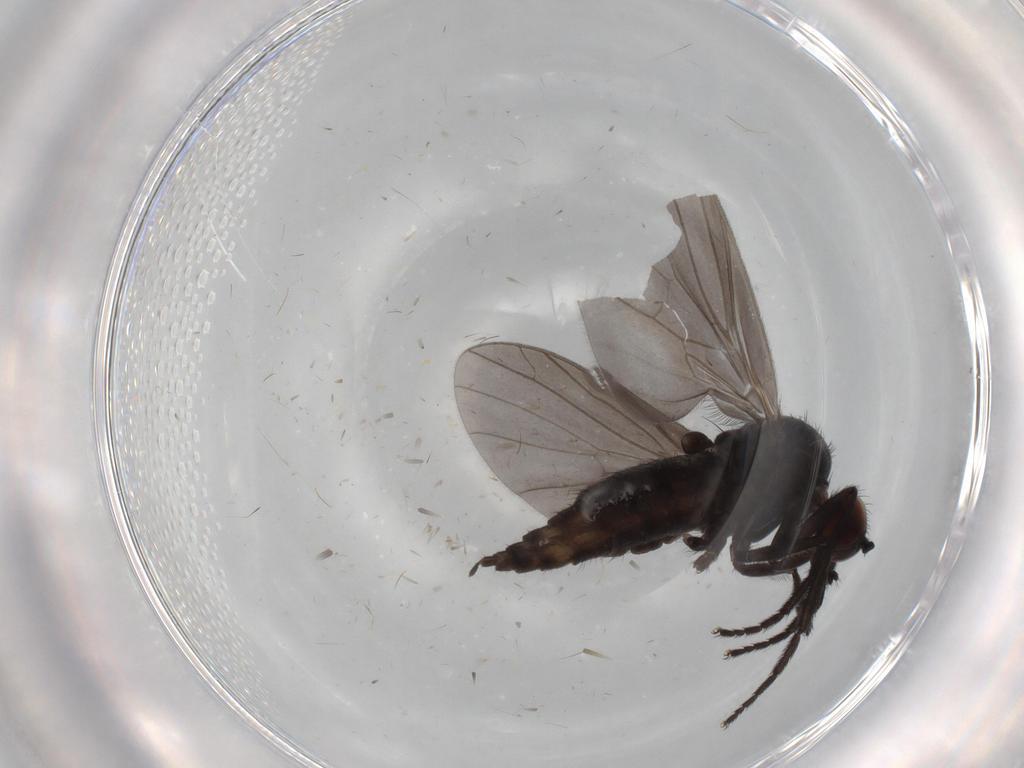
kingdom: Animalia
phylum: Arthropoda
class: Insecta
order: Diptera
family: Empididae
